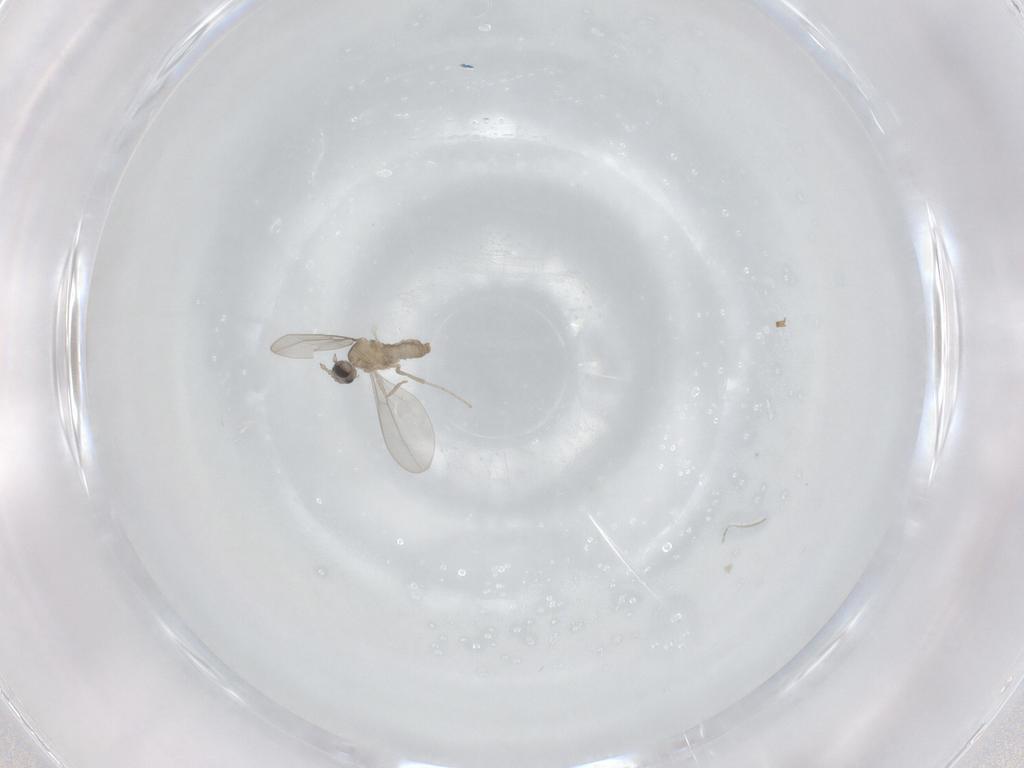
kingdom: Animalia
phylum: Arthropoda
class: Insecta
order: Diptera
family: Cecidomyiidae
